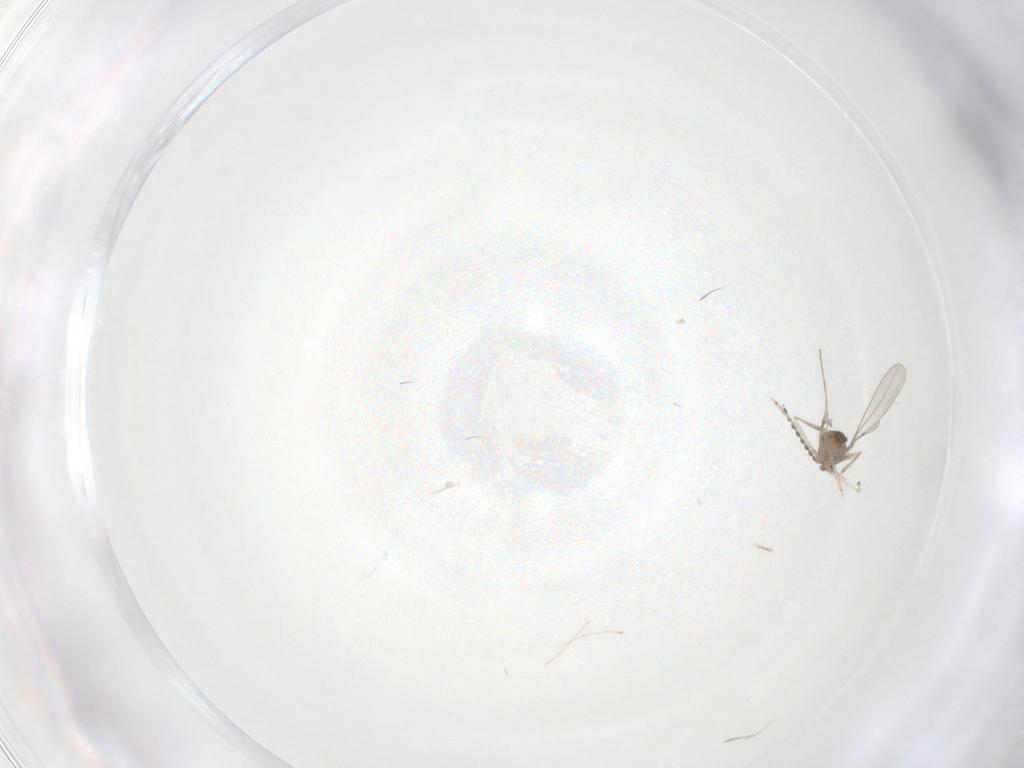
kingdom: Animalia
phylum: Arthropoda
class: Insecta
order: Diptera
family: Cecidomyiidae
